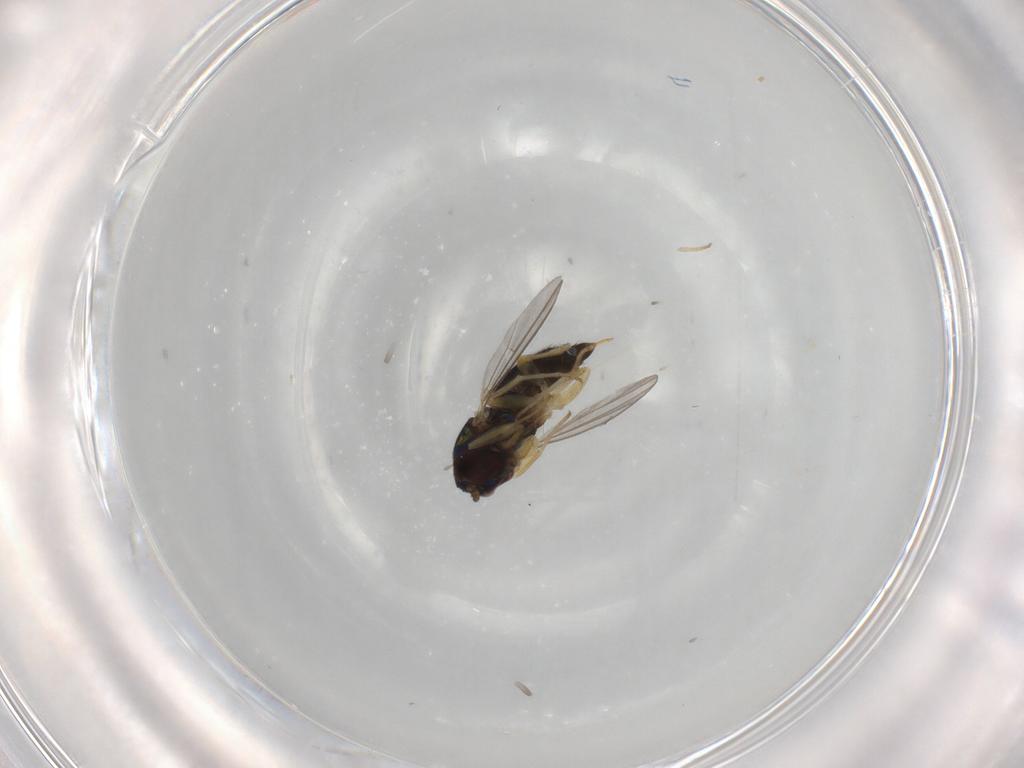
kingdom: Animalia
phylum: Arthropoda
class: Insecta
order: Diptera
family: Dolichopodidae
